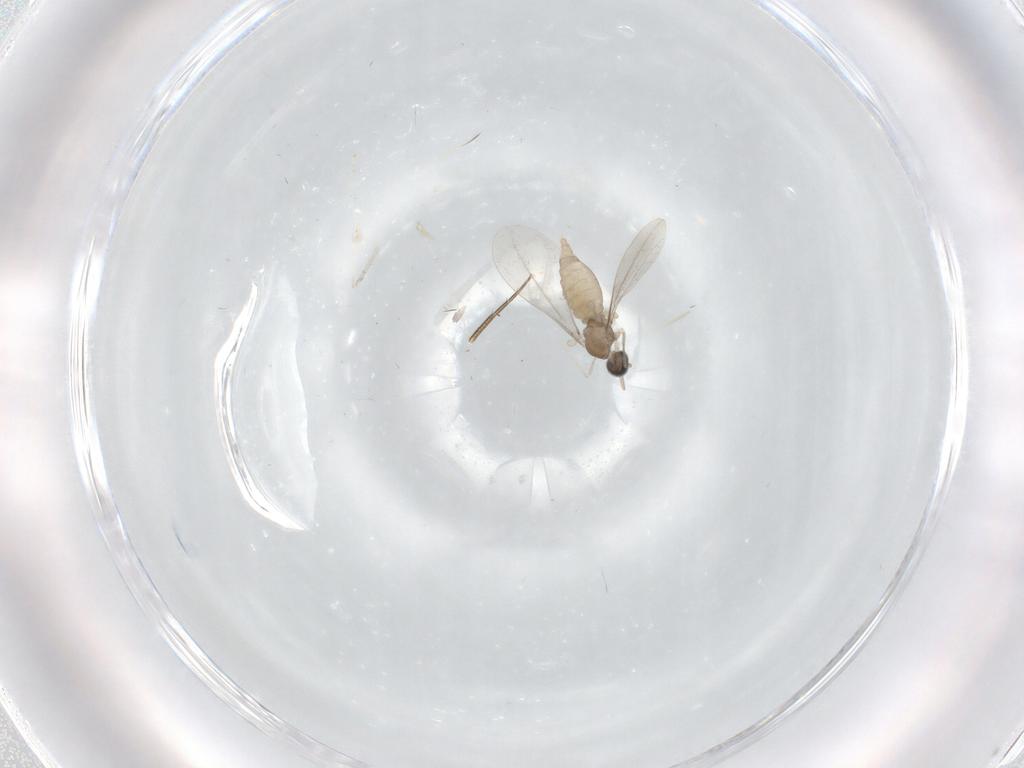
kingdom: Animalia
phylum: Arthropoda
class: Insecta
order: Diptera
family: Cecidomyiidae
